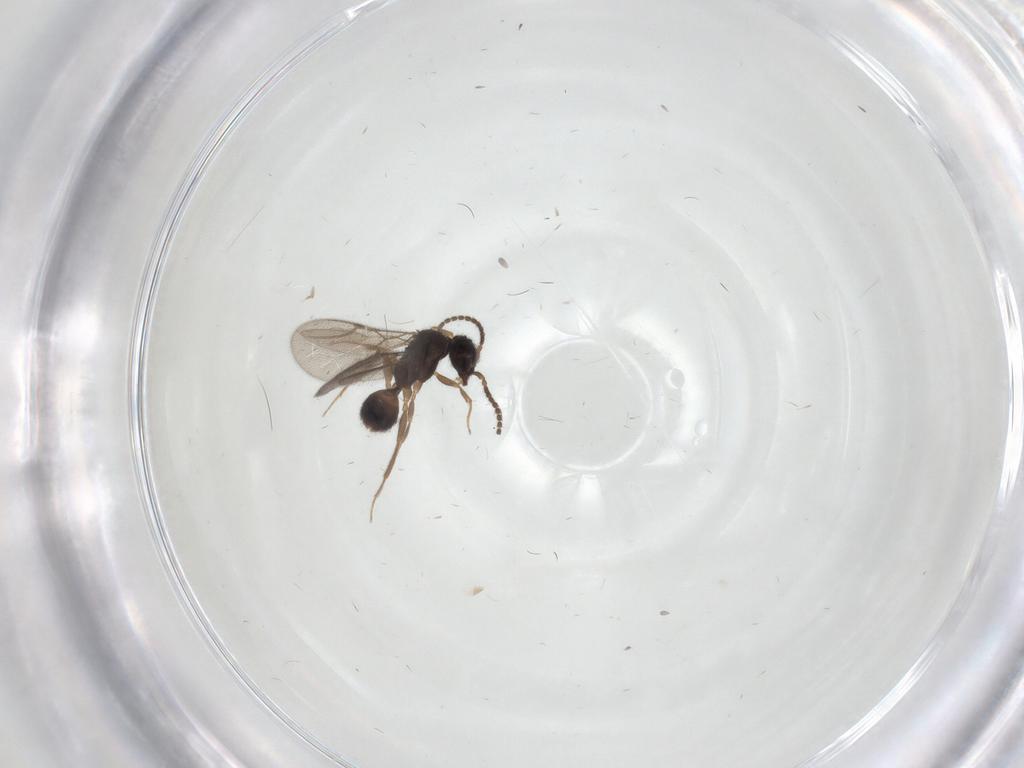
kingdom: Animalia
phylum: Arthropoda
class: Insecta
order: Hymenoptera
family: Bethylidae
